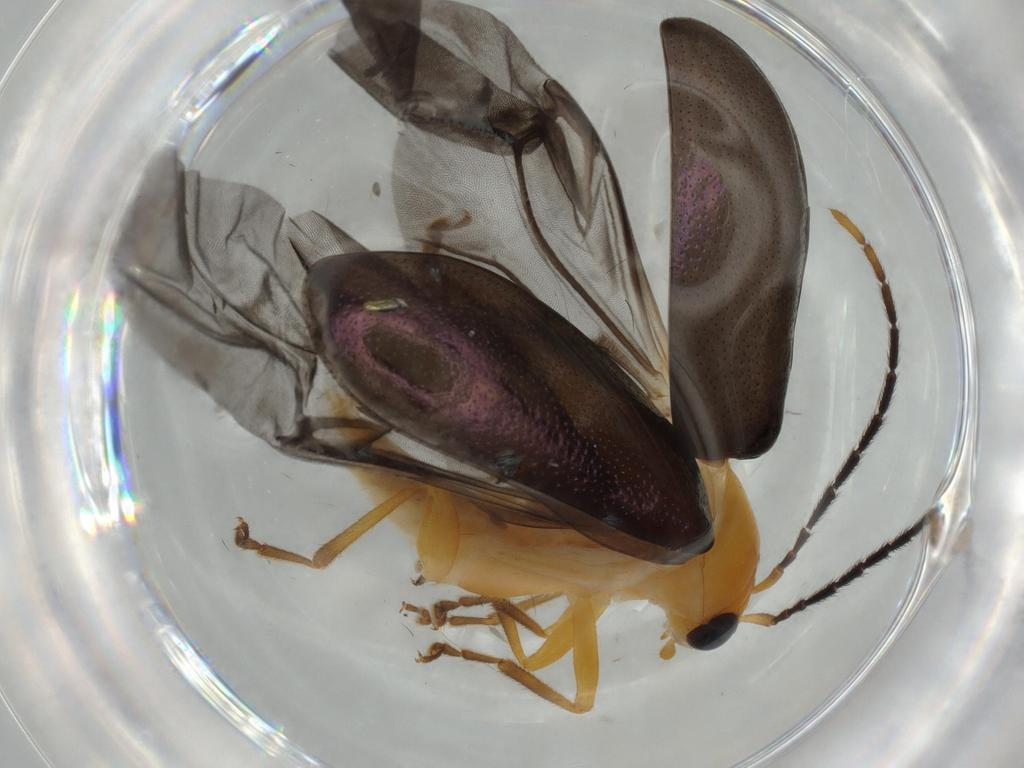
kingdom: Animalia
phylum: Arthropoda
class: Insecta
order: Coleoptera
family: Chrysomelidae
